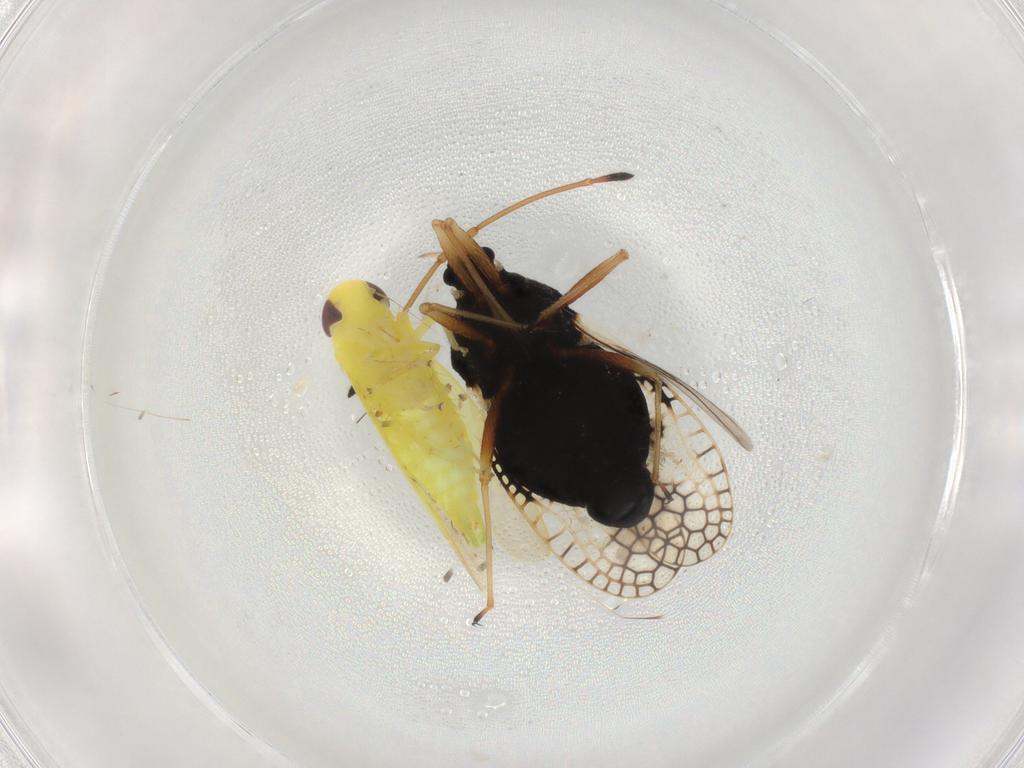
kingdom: Animalia
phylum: Arthropoda
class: Insecta
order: Hemiptera
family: Cicadellidae
